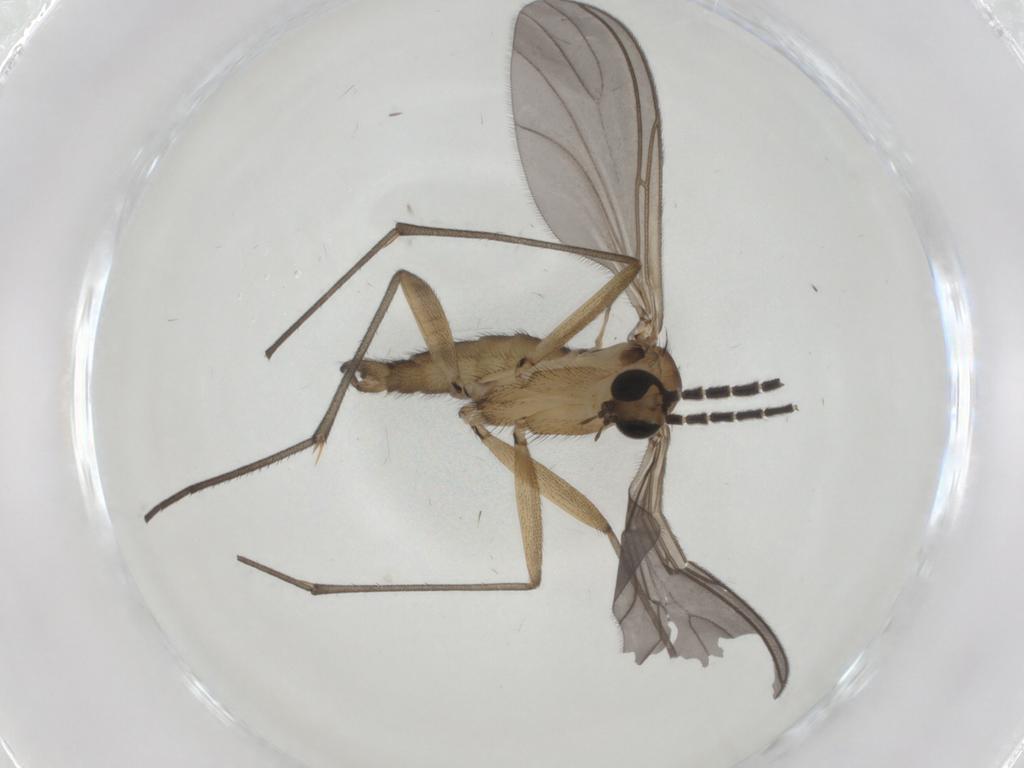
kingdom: Animalia
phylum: Arthropoda
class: Insecta
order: Diptera
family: Sciaridae
